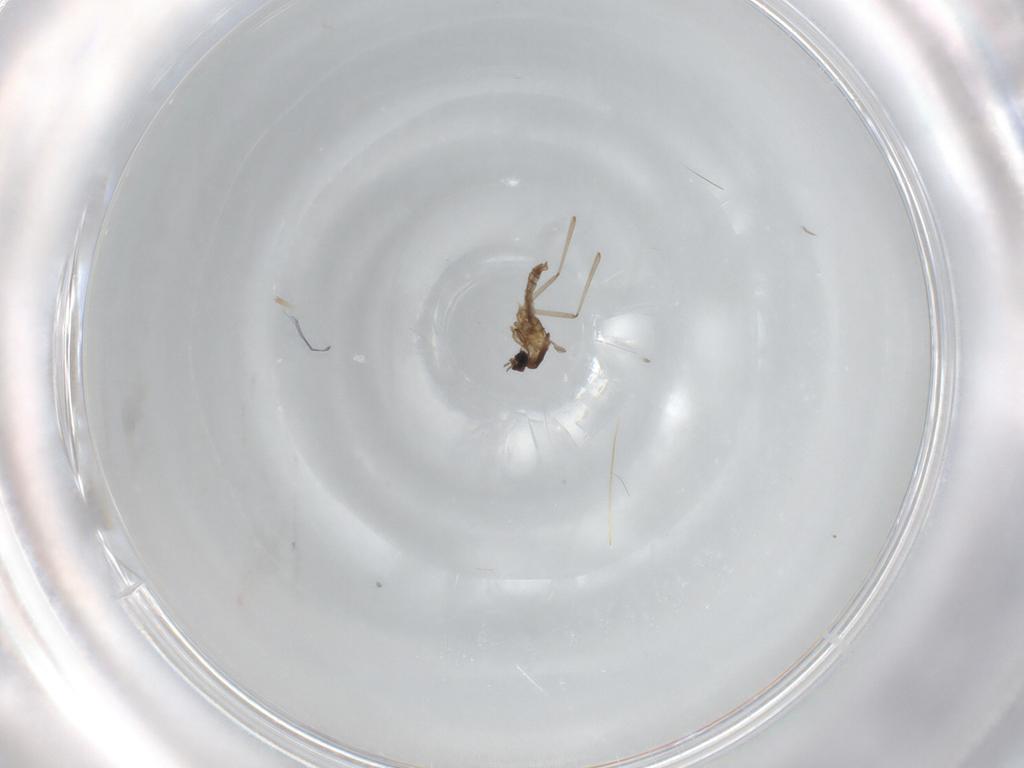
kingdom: Animalia
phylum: Arthropoda
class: Insecta
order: Diptera
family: Cecidomyiidae
